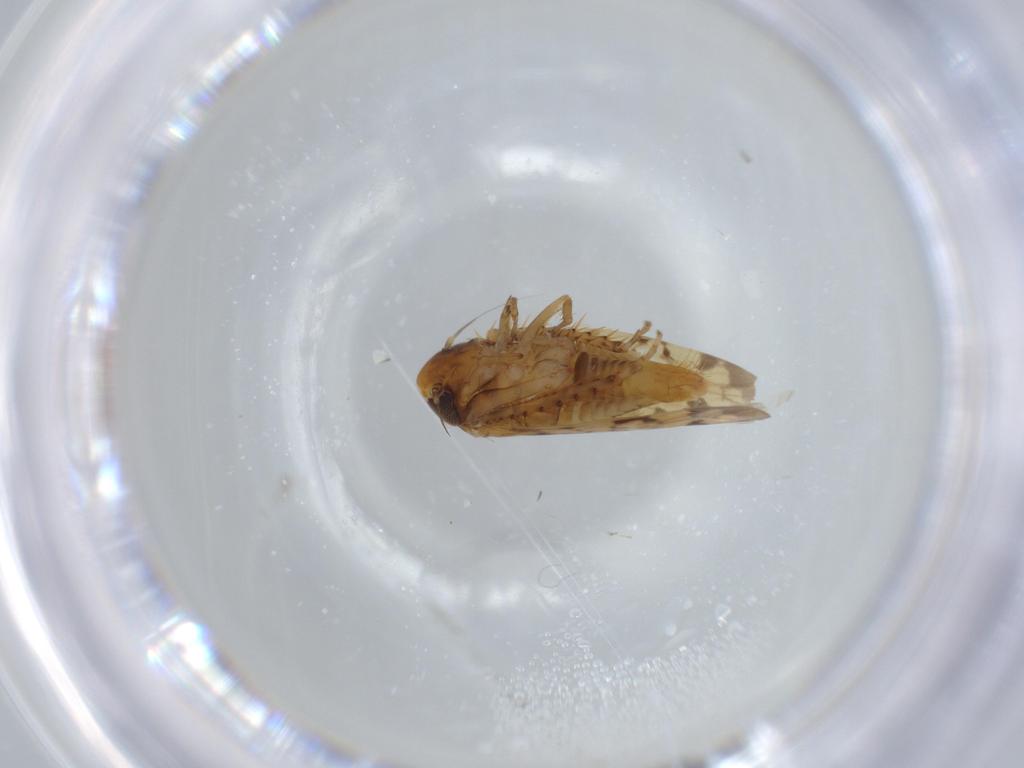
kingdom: Animalia
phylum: Arthropoda
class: Insecta
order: Hemiptera
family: Cicadellidae
